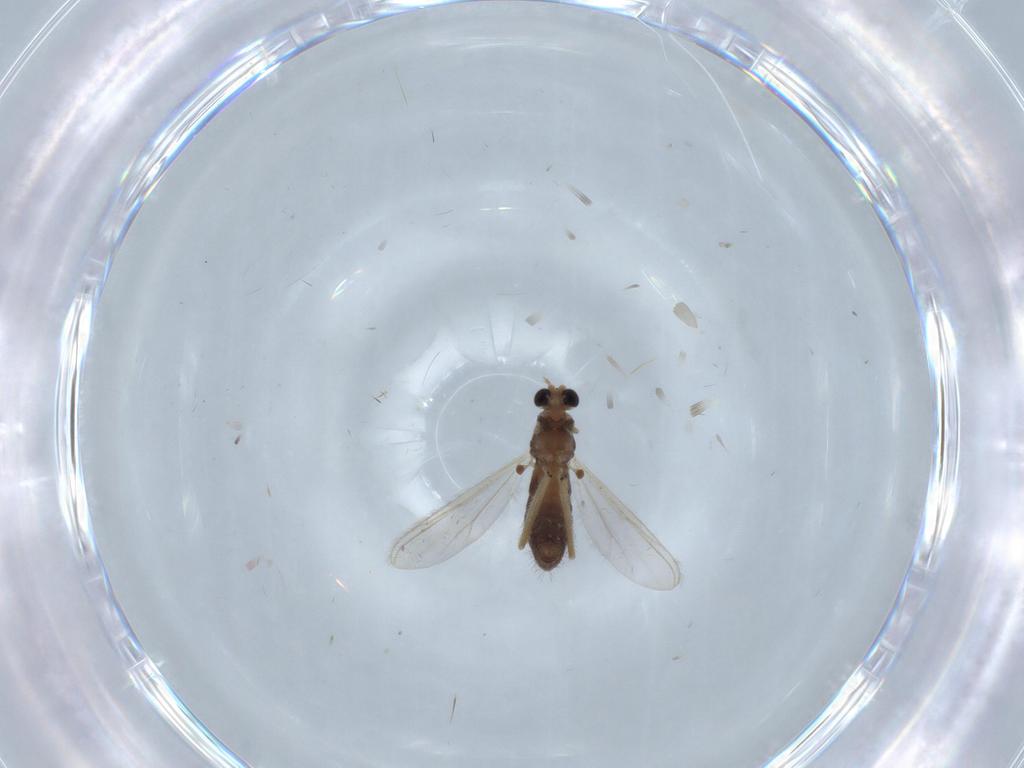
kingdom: Animalia
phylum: Arthropoda
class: Insecta
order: Diptera
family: Chironomidae
